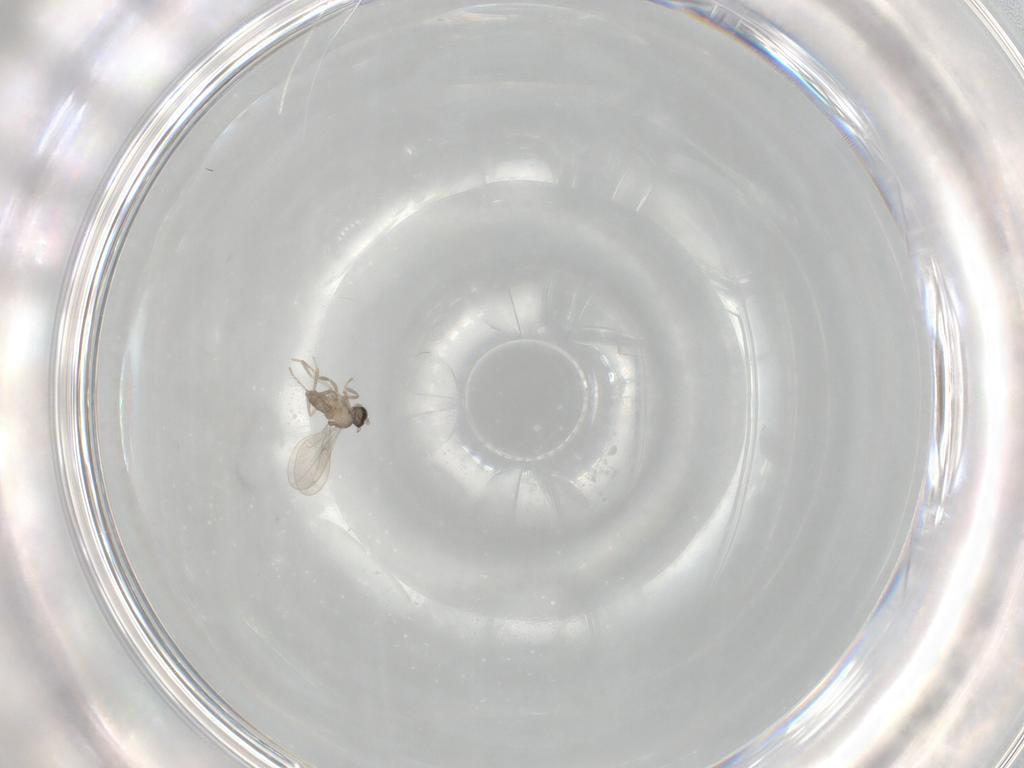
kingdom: Animalia
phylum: Arthropoda
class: Insecta
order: Diptera
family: Cecidomyiidae
